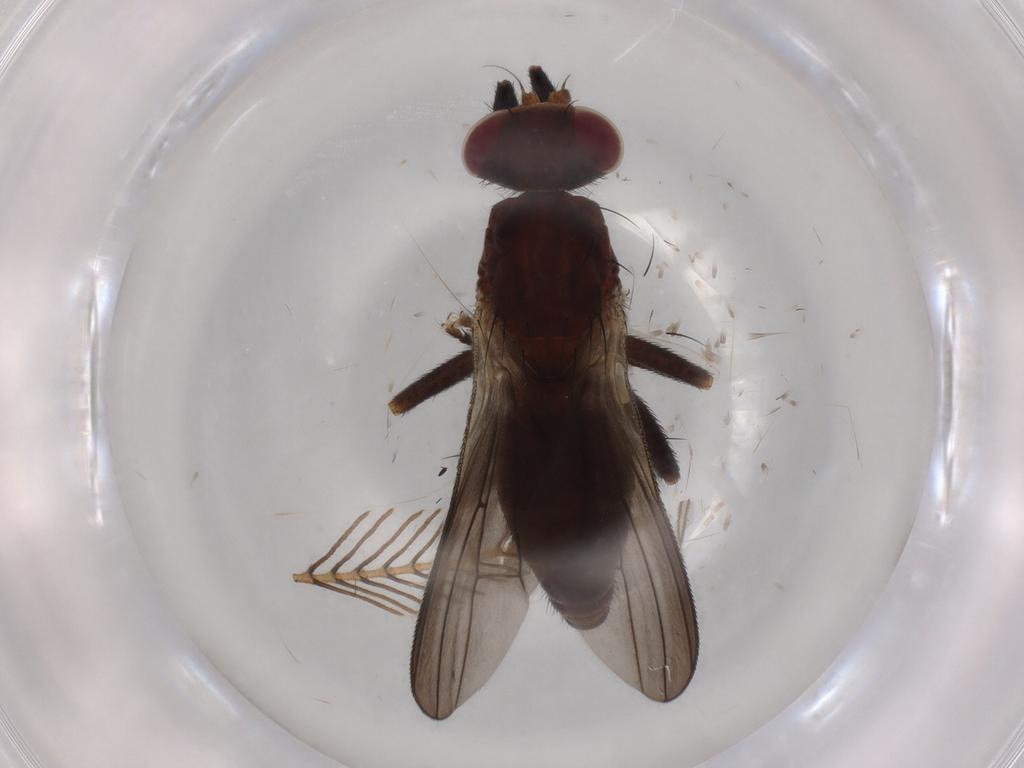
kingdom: Animalia
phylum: Arthropoda
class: Insecta
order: Diptera
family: Sciomyzidae
